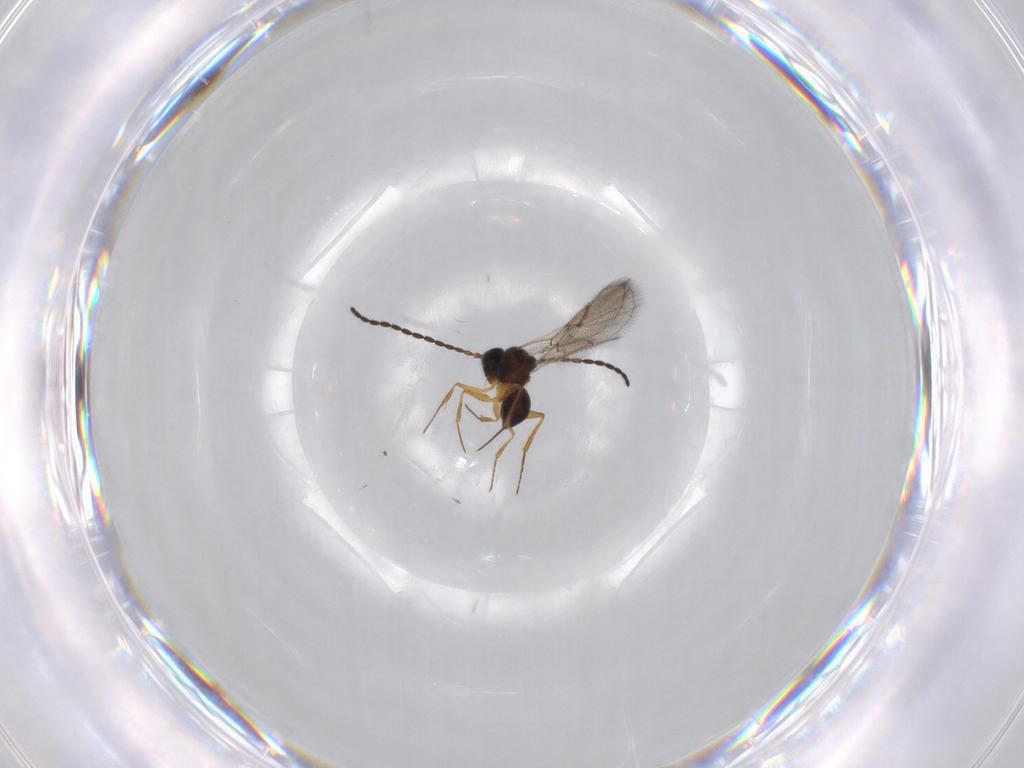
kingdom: Animalia
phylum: Arthropoda
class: Insecta
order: Hymenoptera
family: Figitidae
